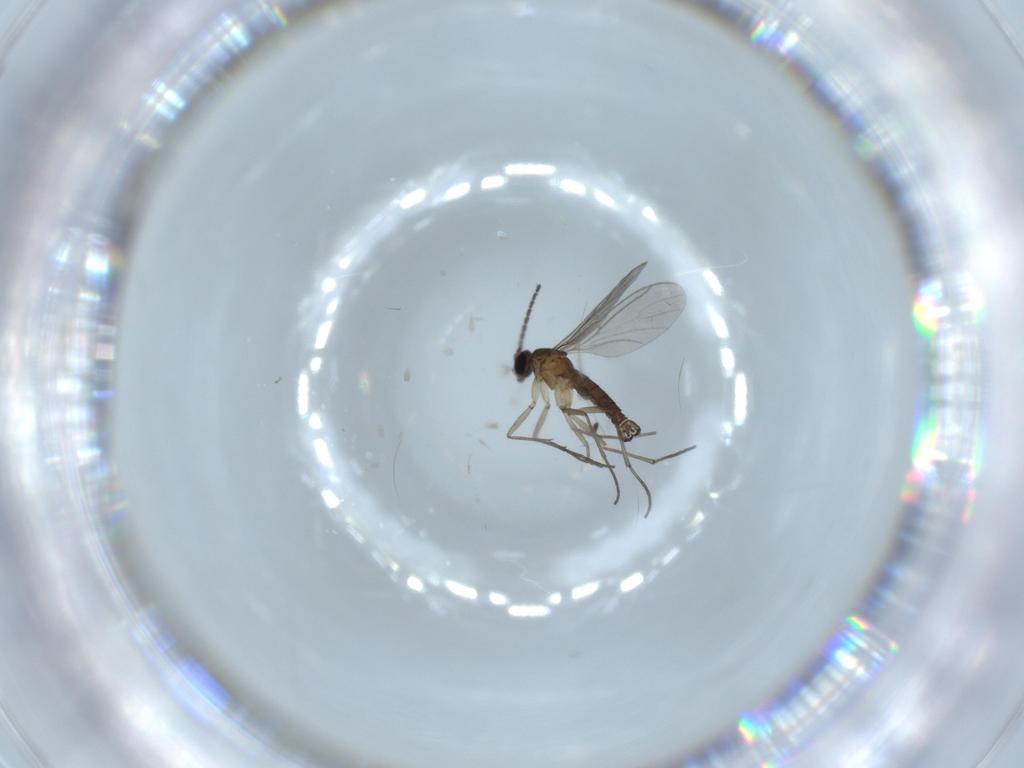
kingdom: Animalia
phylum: Arthropoda
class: Insecta
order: Diptera
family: Sciaridae
